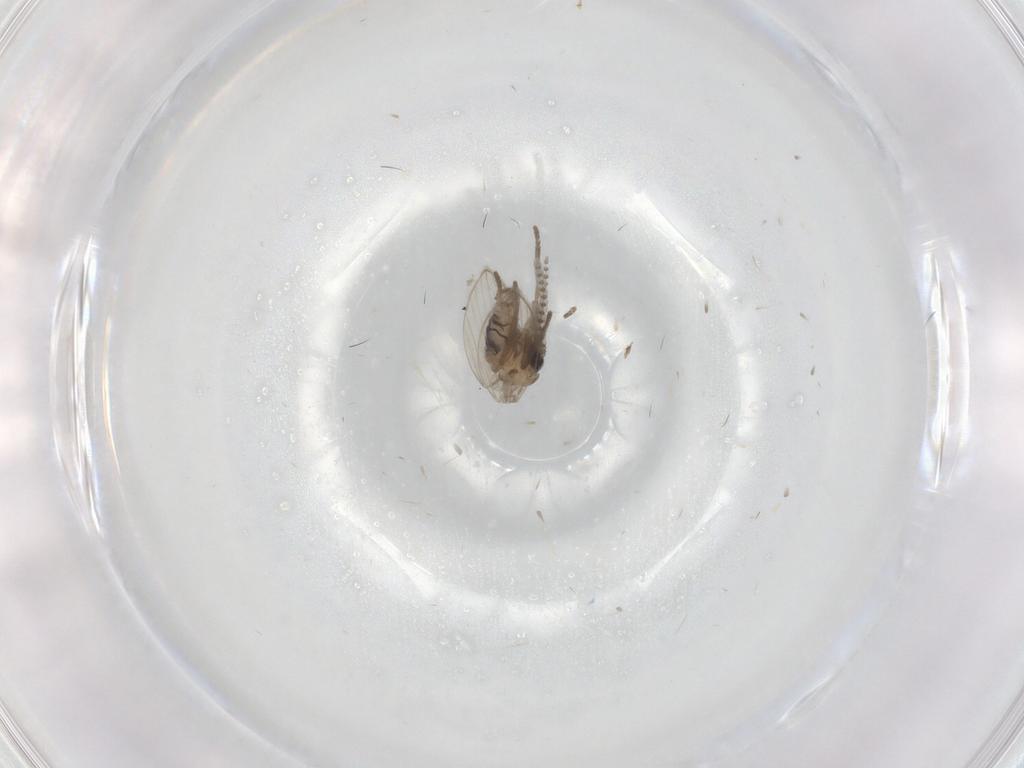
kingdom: Animalia
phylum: Arthropoda
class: Insecta
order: Diptera
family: Psychodidae
